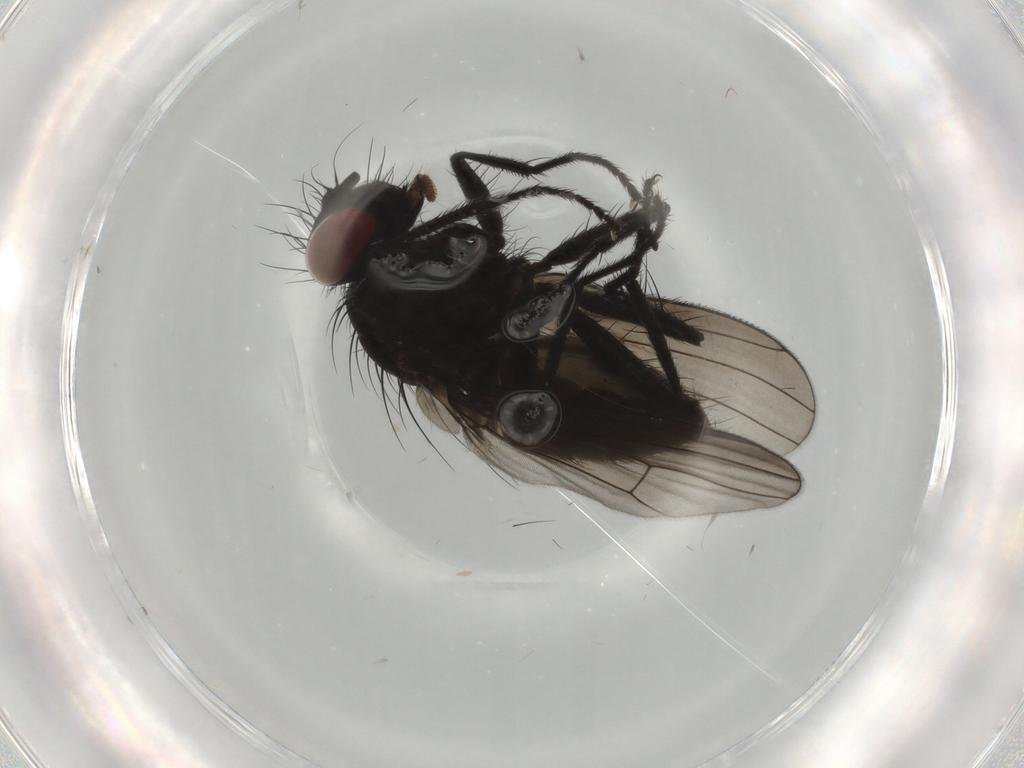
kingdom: Animalia
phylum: Arthropoda
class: Insecta
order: Diptera
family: Muscidae
